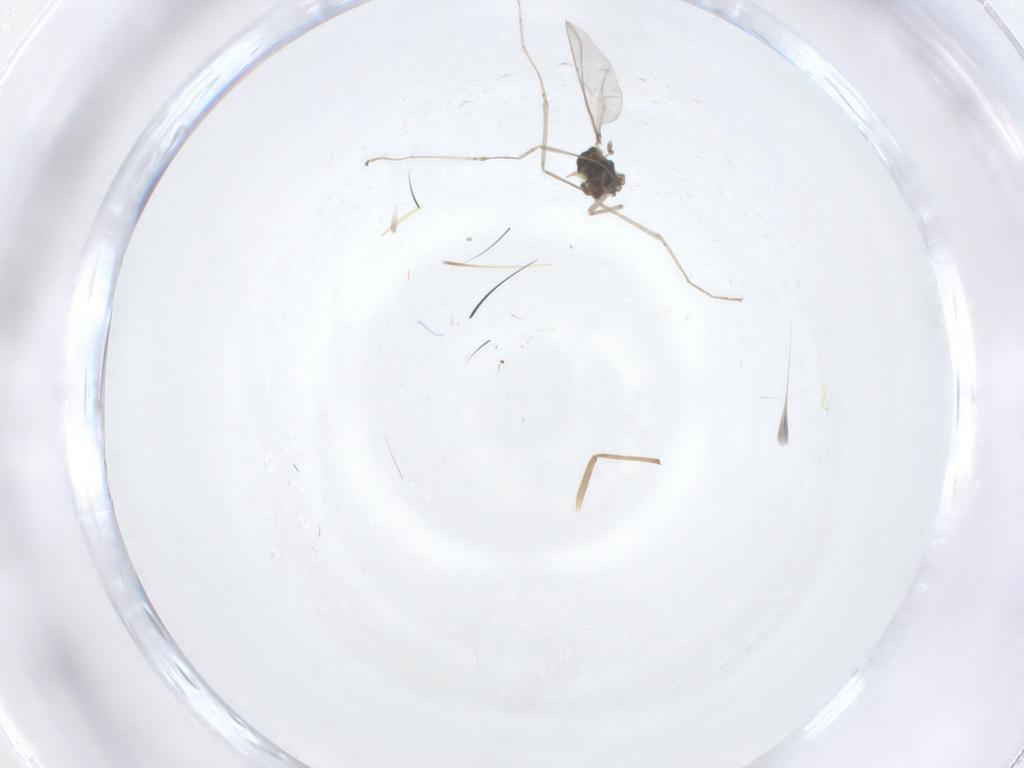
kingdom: Animalia
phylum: Arthropoda
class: Insecta
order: Diptera
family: Cecidomyiidae
